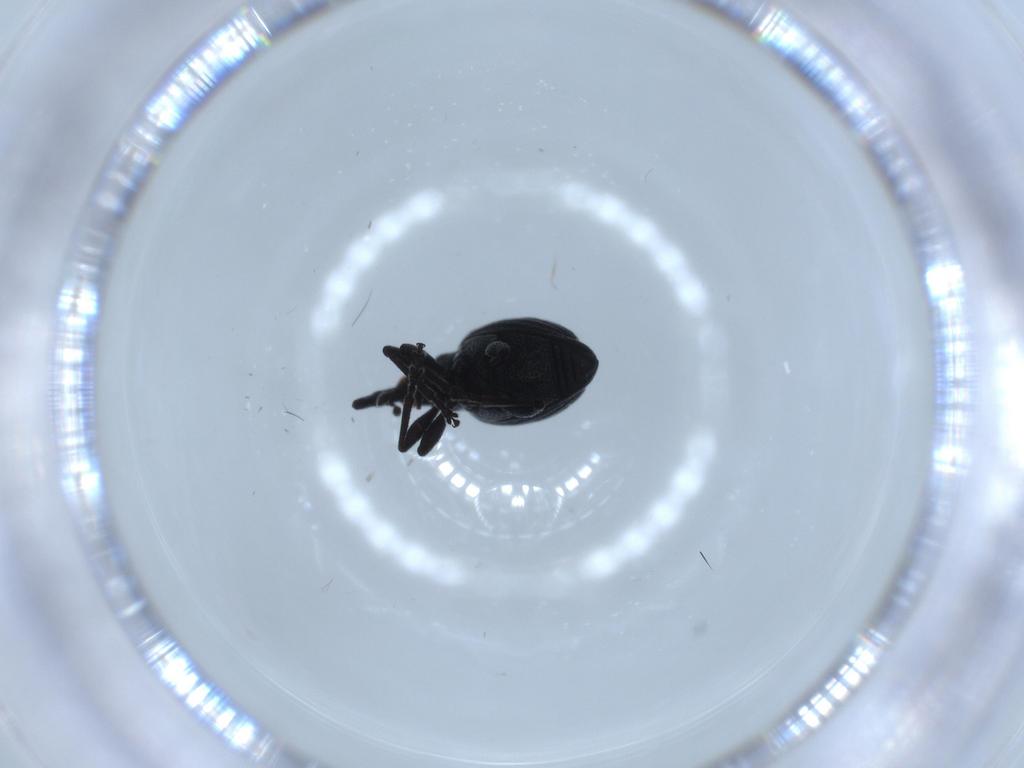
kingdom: Animalia
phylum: Arthropoda
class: Insecta
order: Coleoptera
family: Brentidae
